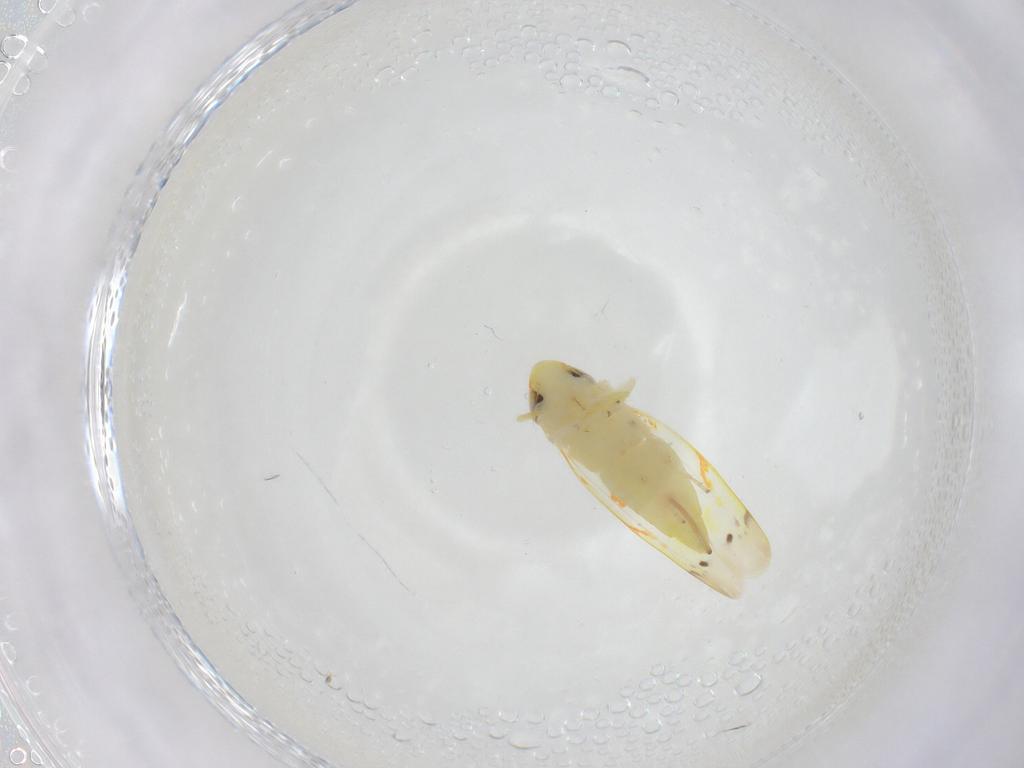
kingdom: Animalia
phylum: Arthropoda
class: Insecta
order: Hemiptera
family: Cicadellidae
